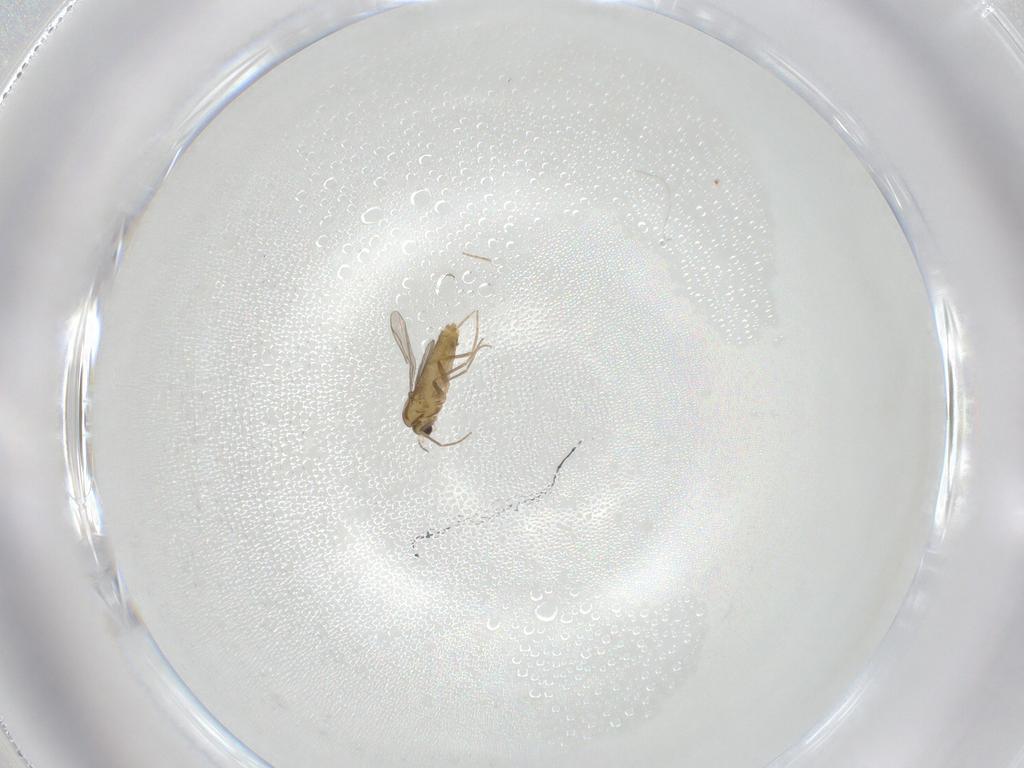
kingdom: Animalia
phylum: Arthropoda
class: Insecta
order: Diptera
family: Chironomidae
